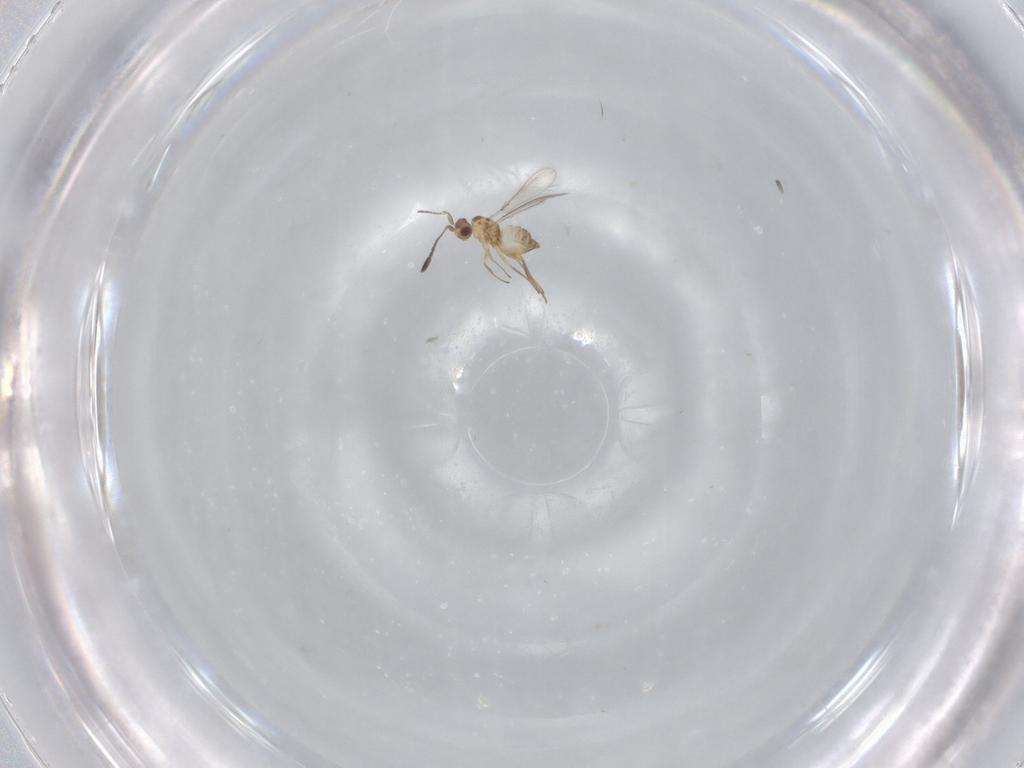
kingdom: Animalia
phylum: Arthropoda
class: Insecta
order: Hymenoptera
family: Mymaridae
